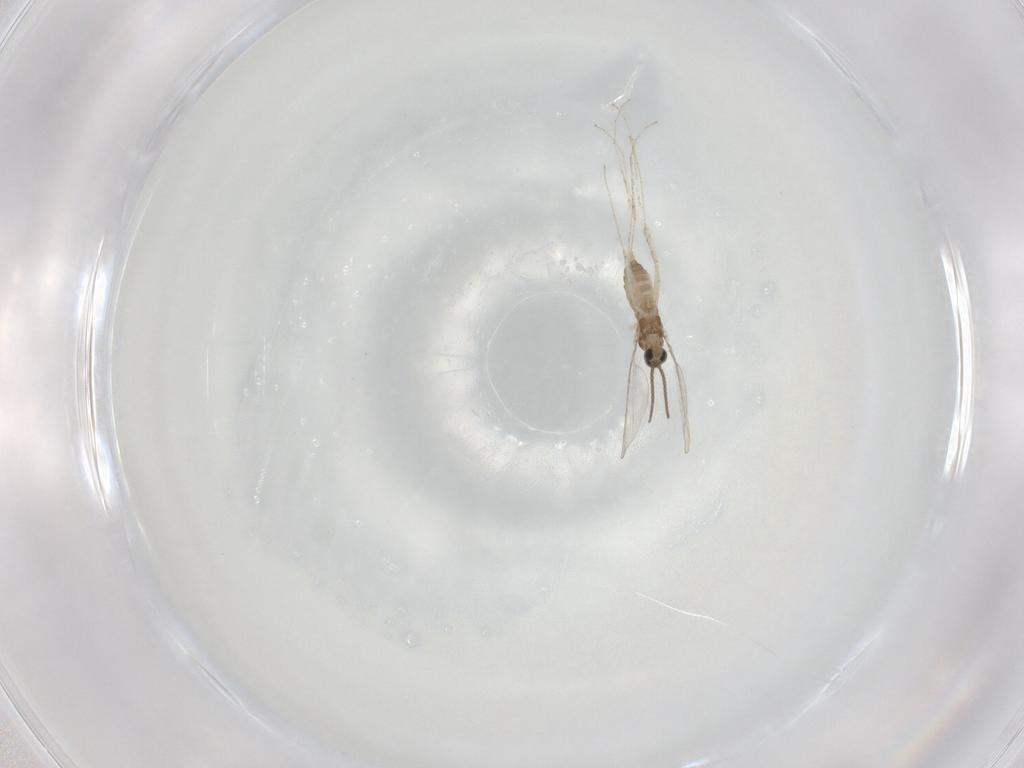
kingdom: Animalia
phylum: Arthropoda
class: Insecta
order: Diptera
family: Cecidomyiidae
